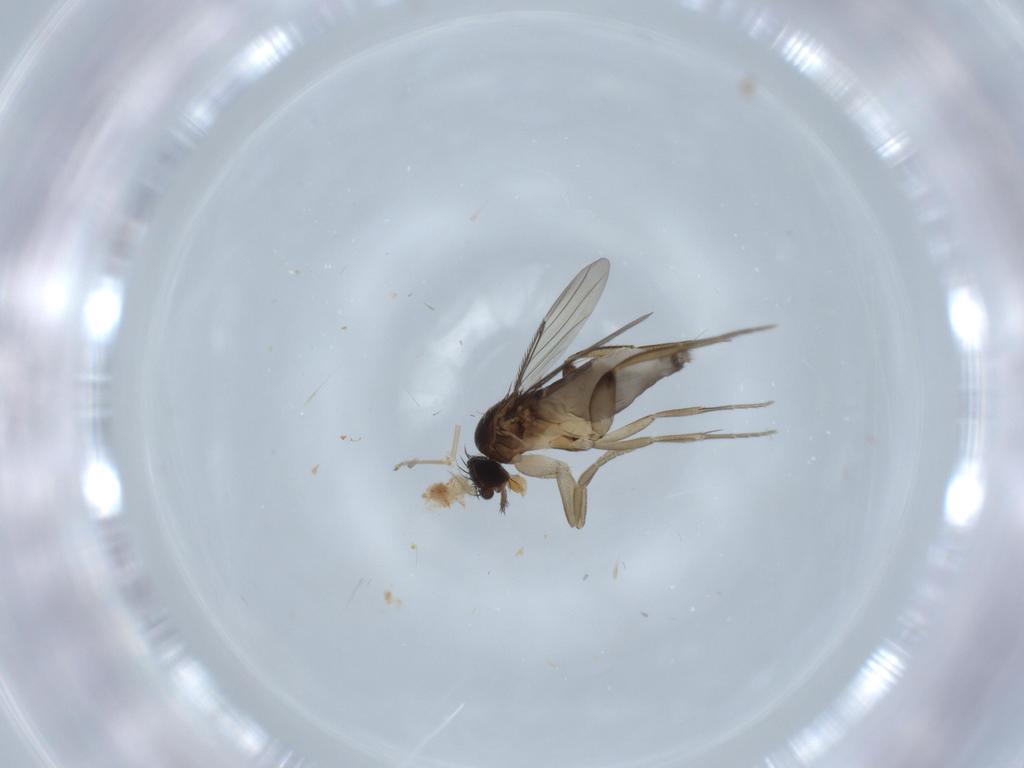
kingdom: Animalia
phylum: Arthropoda
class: Insecta
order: Diptera
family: Phoridae
